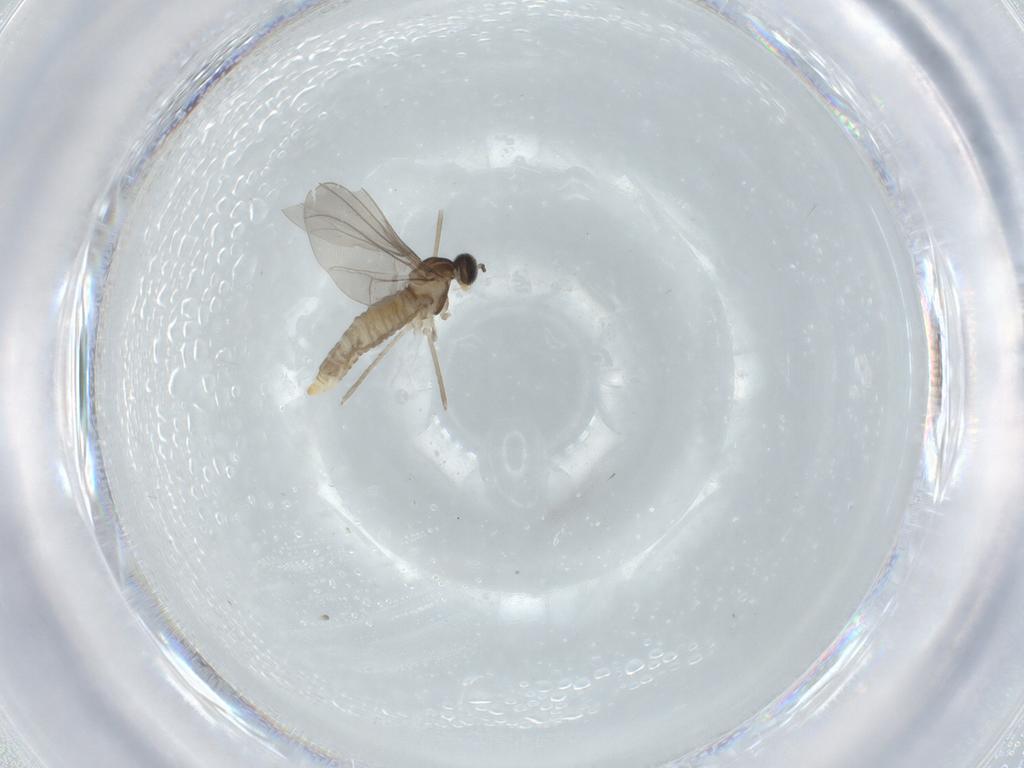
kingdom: Animalia
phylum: Arthropoda
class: Insecta
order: Diptera
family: Cecidomyiidae
